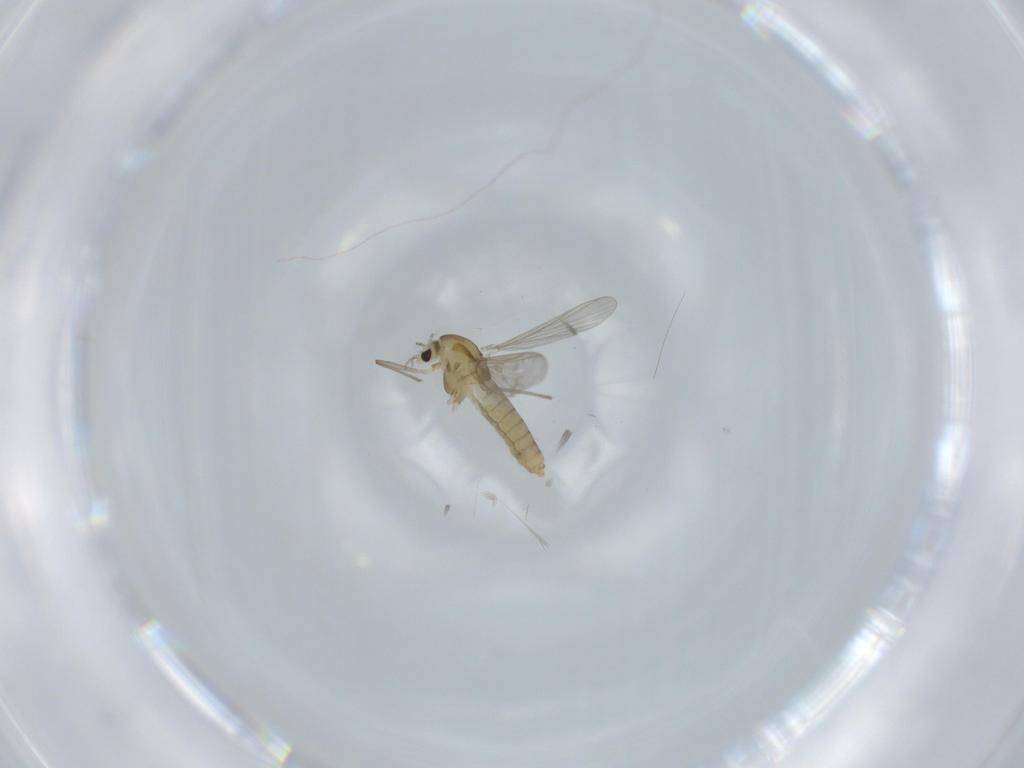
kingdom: Animalia
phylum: Arthropoda
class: Insecta
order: Diptera
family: Chironomidae
